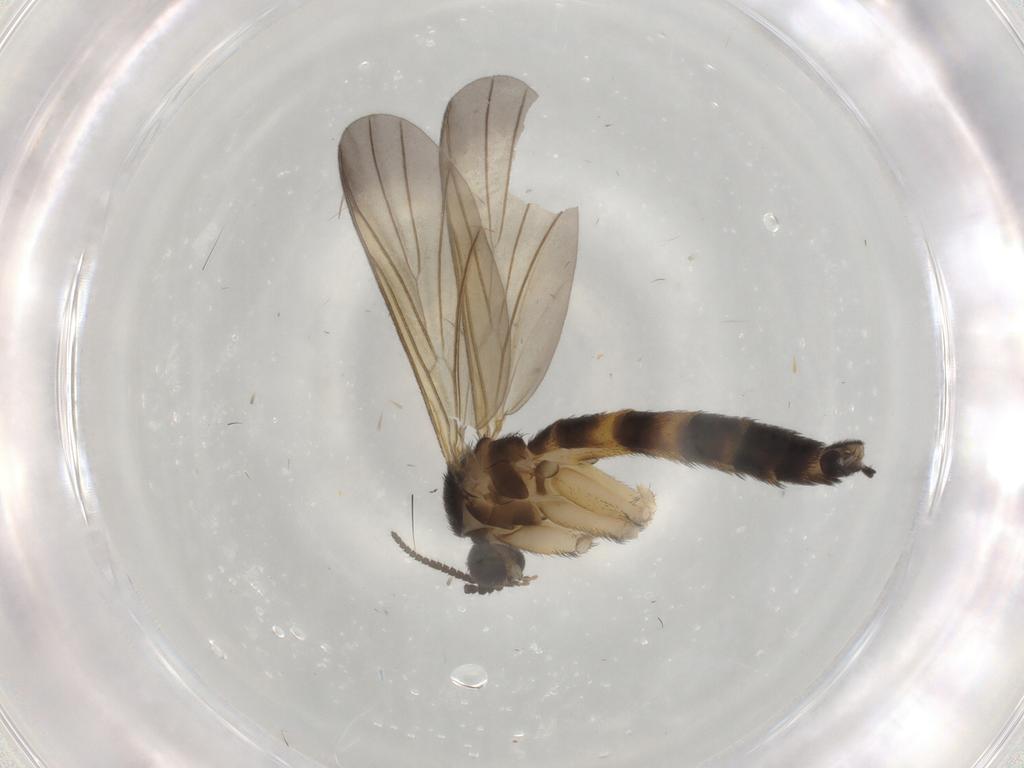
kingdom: Animalia
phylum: Arthropoda
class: Insecta
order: Diptera
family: Keroplatidae
